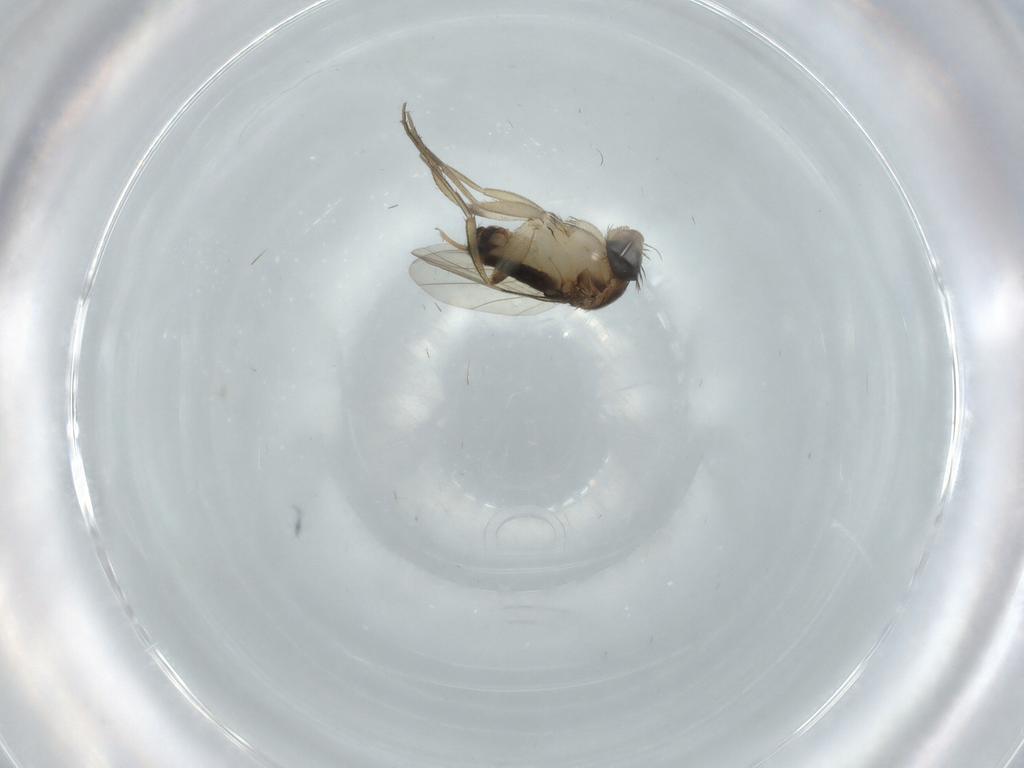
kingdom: Animalia
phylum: Arthropoda
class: Insecta
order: Diptera
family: Phoridae
